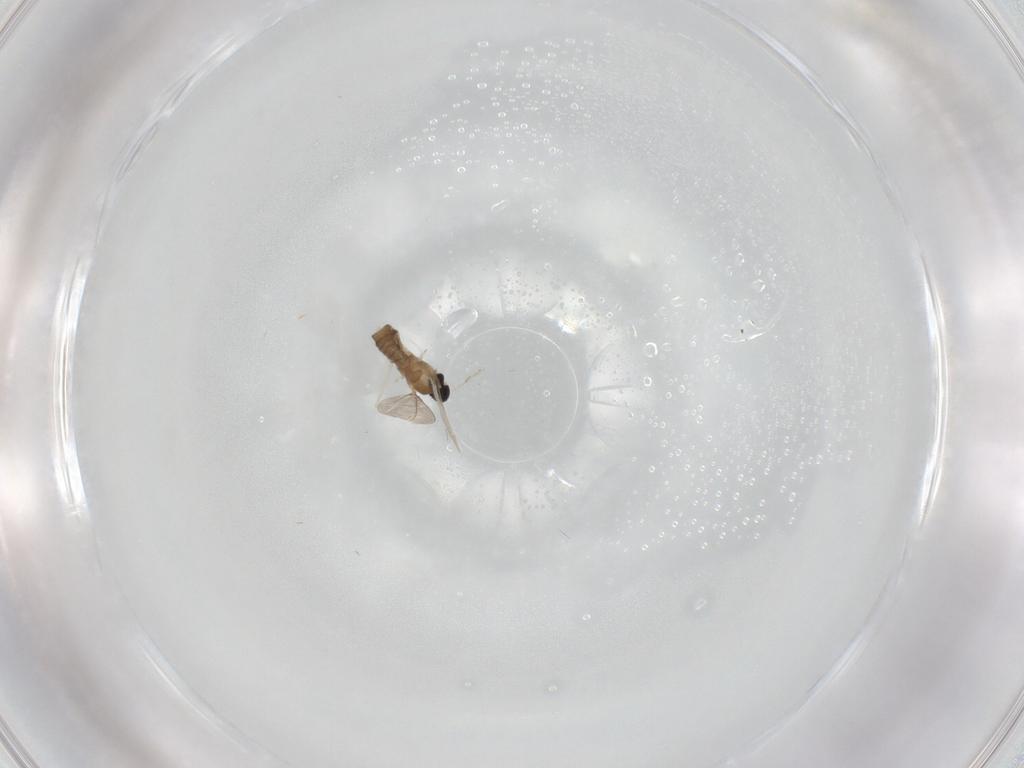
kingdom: Animalia
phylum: Arthropoda
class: Insecta
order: Diptera
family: Cecidomyiidae
